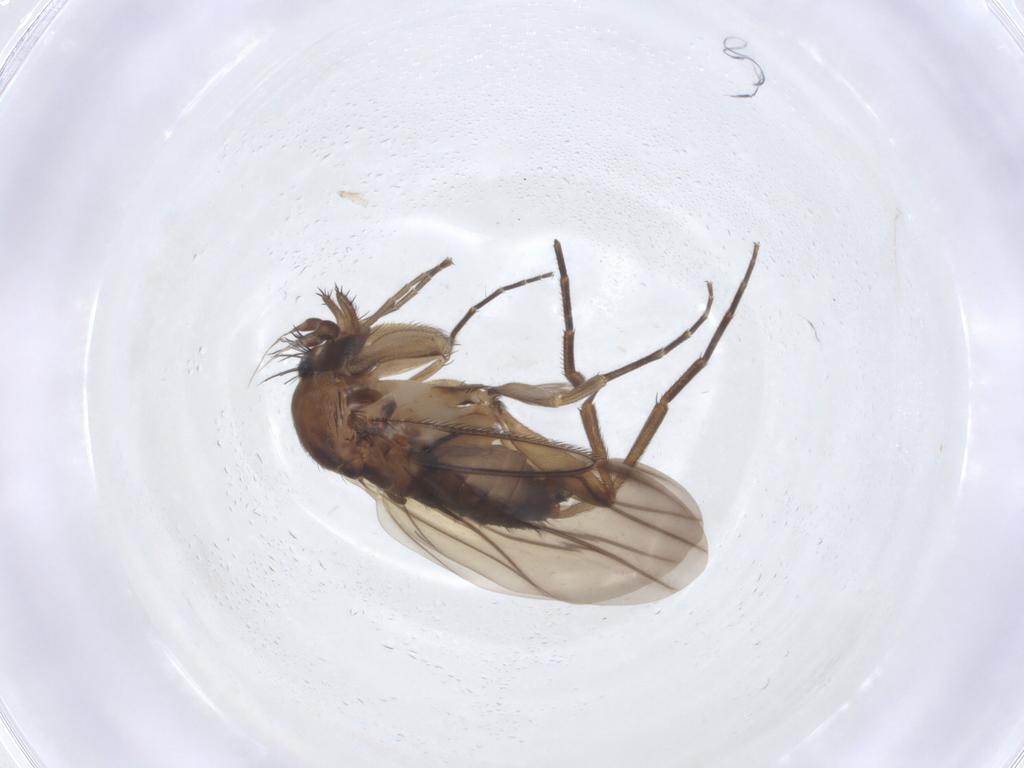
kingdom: Animalia
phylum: Arthropoda
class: Insecta
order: Diptera
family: Phoridae
